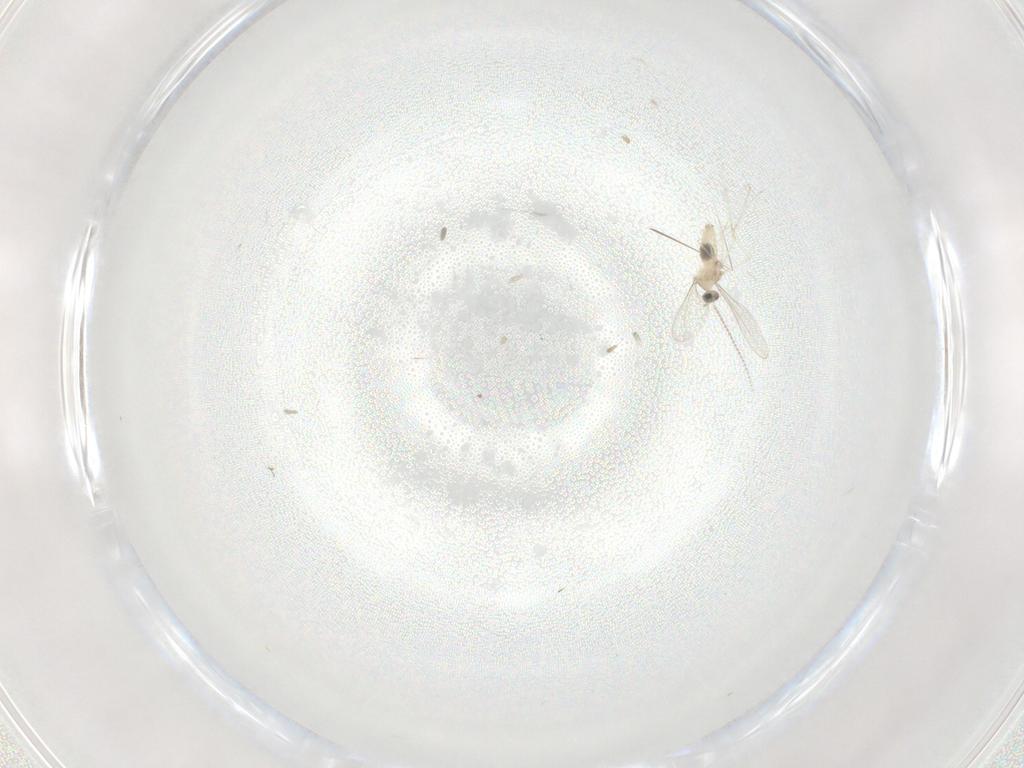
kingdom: Animalia
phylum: Arthropoda
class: Insecta
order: Diptera
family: Cecidomyiidae
